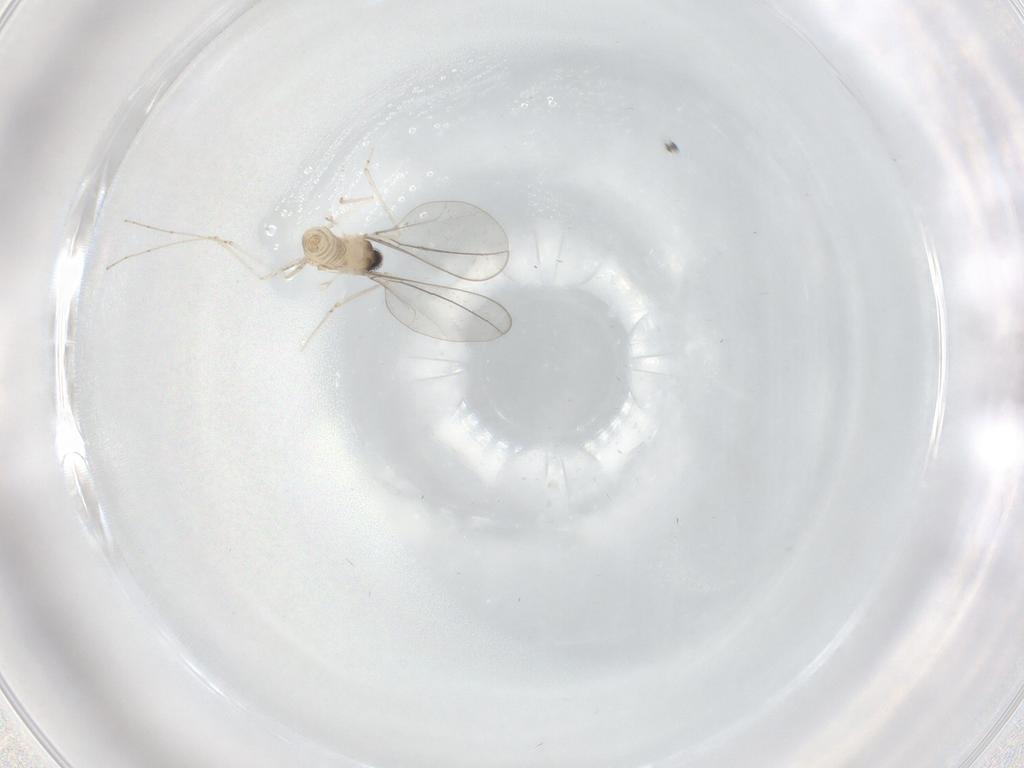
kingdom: Animalia
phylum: Arthropoda
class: Insecta
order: Diptera
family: Cecidomyiidae
